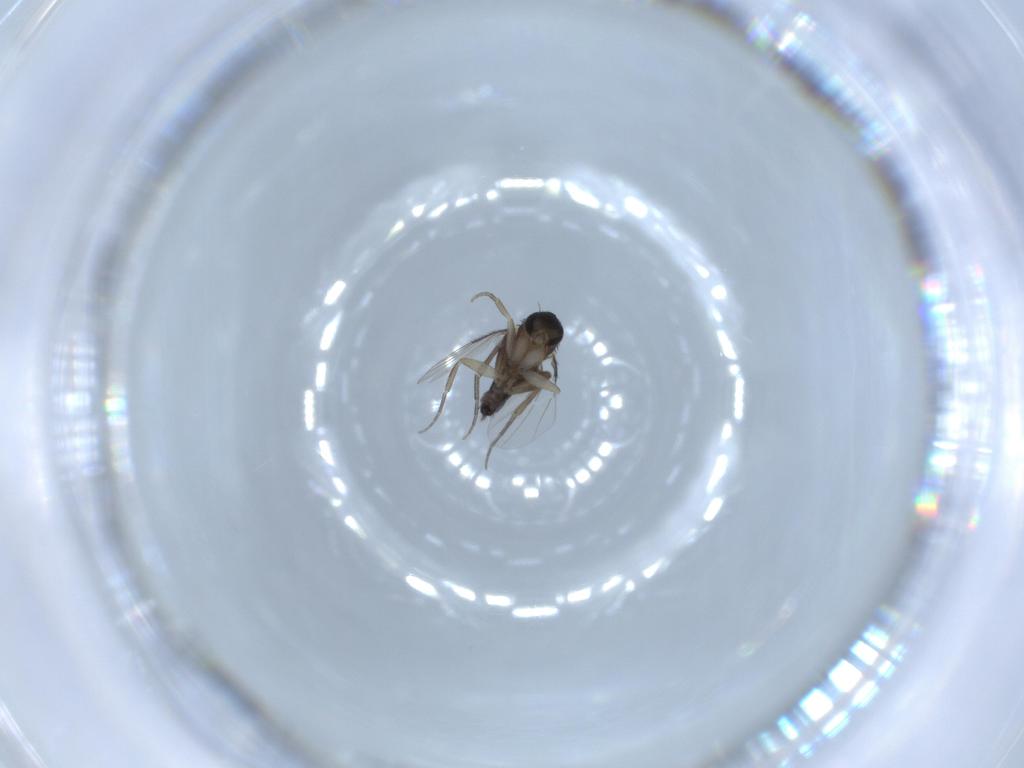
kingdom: Animalia
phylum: Arthropoda
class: Insecta
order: Diptera
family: Phoridae
